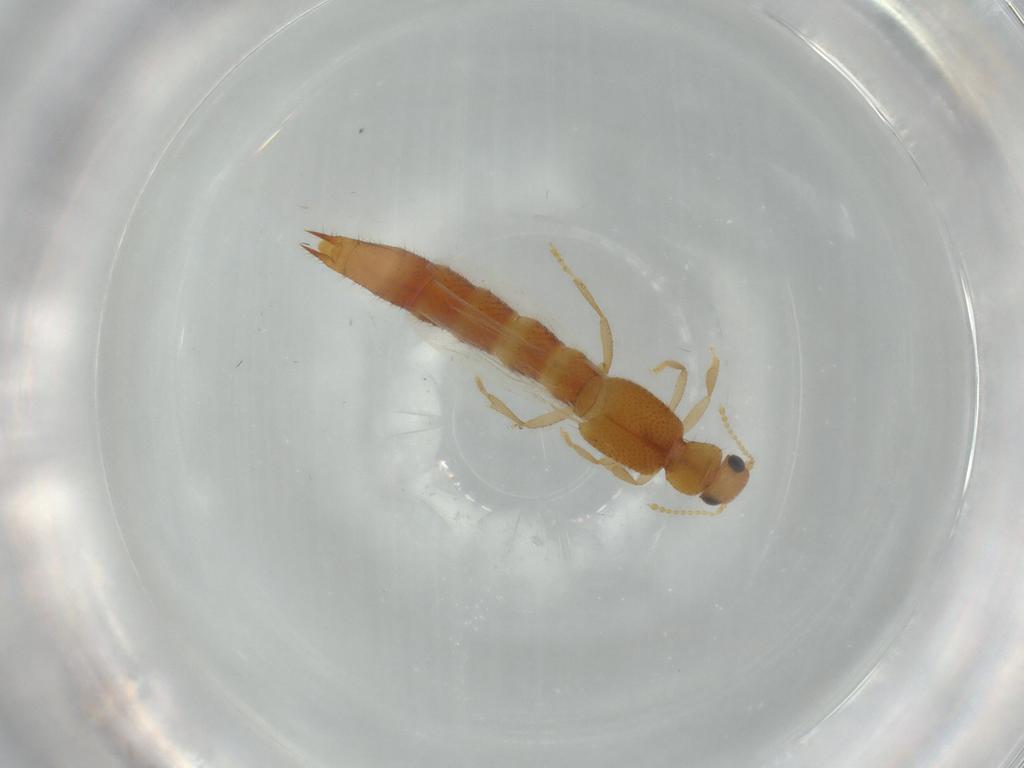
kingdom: Animalia
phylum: Arthropoda
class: Insecta
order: Coleoptera
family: Staphylinidae
